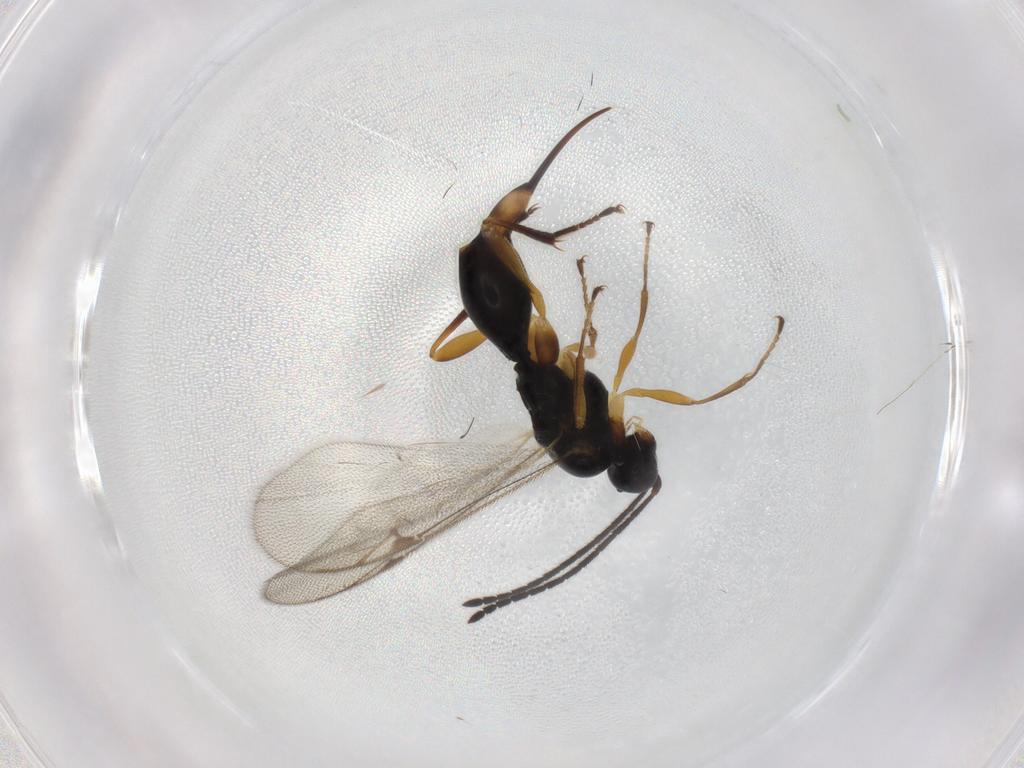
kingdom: Animalia
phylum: Arthropoda
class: Insecta
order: Hymenoptera
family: Proctotrupidae
